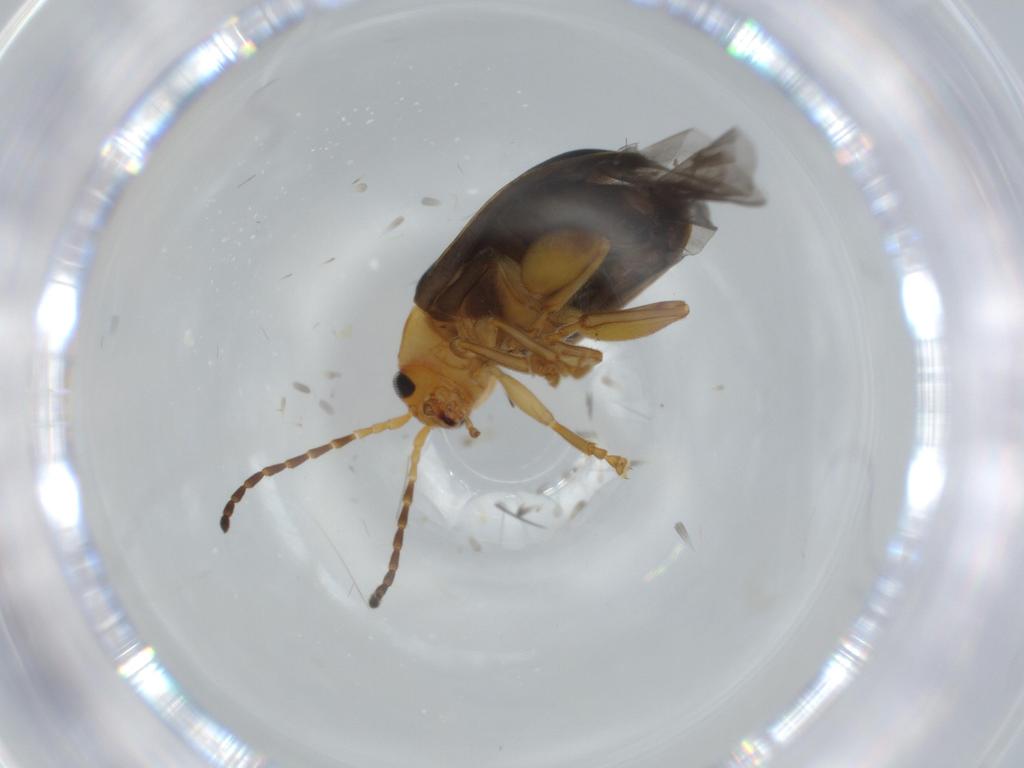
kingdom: Animalia
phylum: Arthropoda
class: Insecta
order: Coleoptera
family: Chrysomelidae
